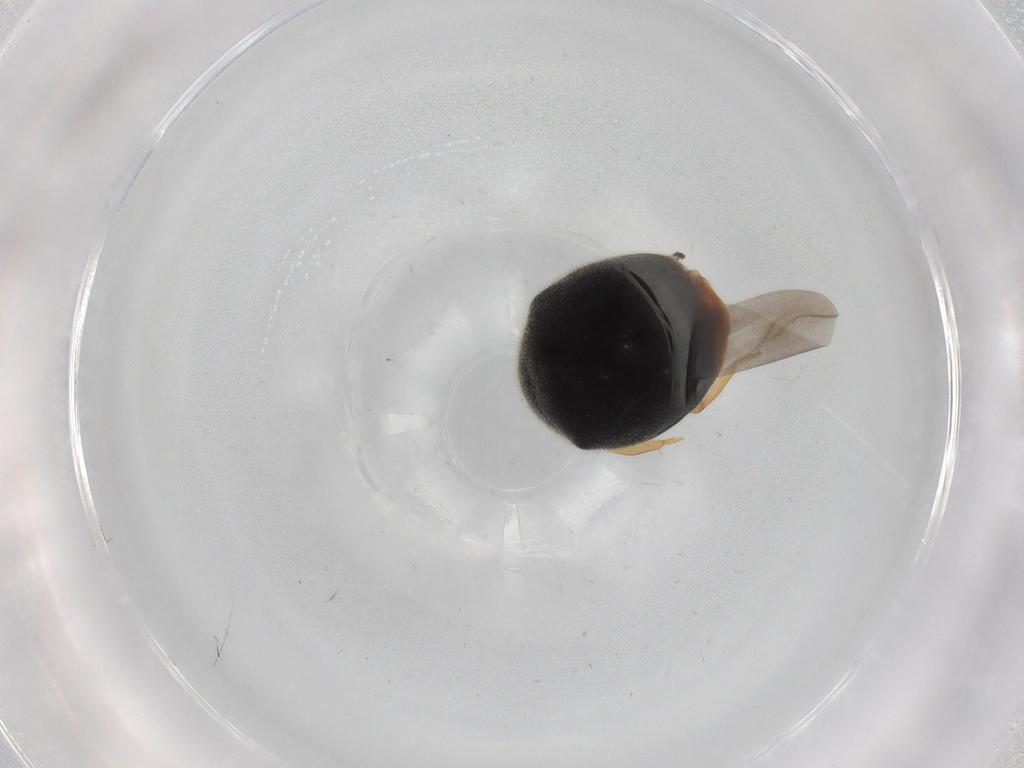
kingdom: Animalia
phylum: Arthropoda
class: Insecta
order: Coleoptera
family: Coccinellidae
